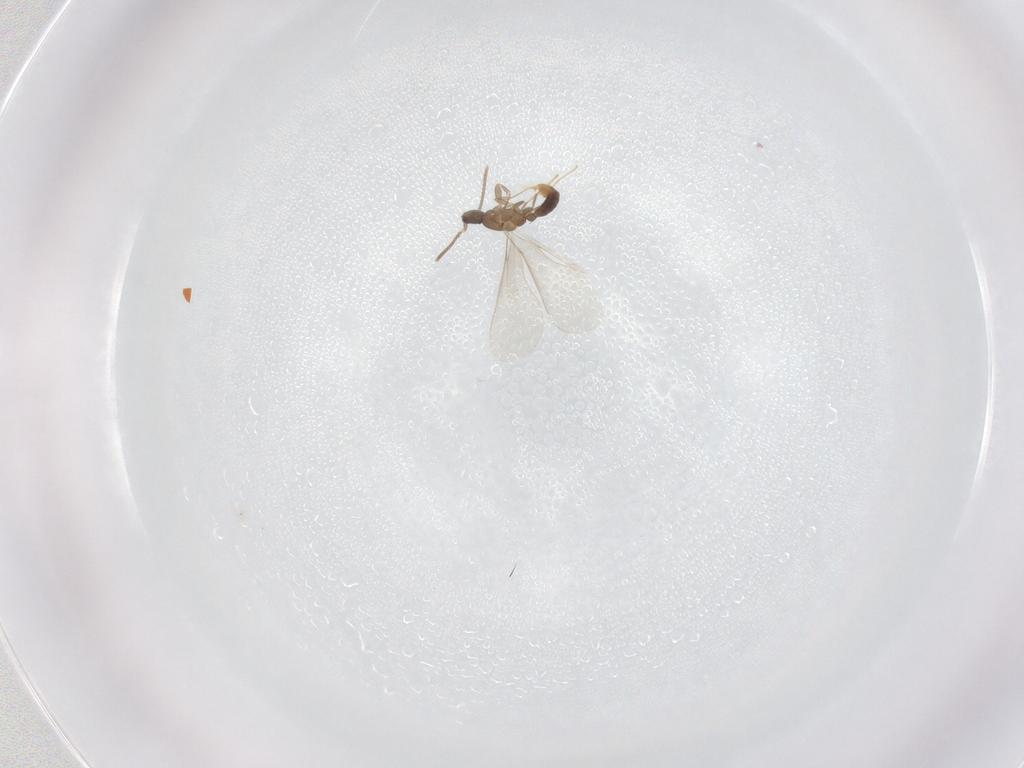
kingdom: Animalia
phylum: Arthropoda
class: Insecta
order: Hymenoptera
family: Formicidae
